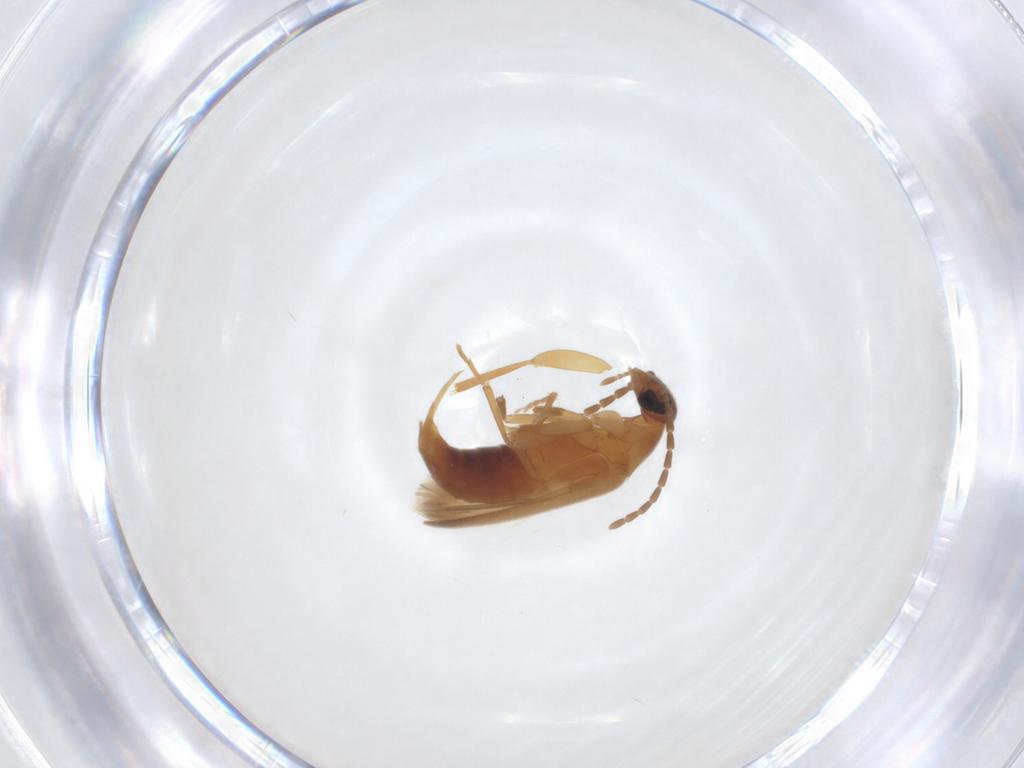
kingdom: Animalia
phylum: Arthropoda
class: Insecta
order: Coleoptera
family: Scraptiidae
